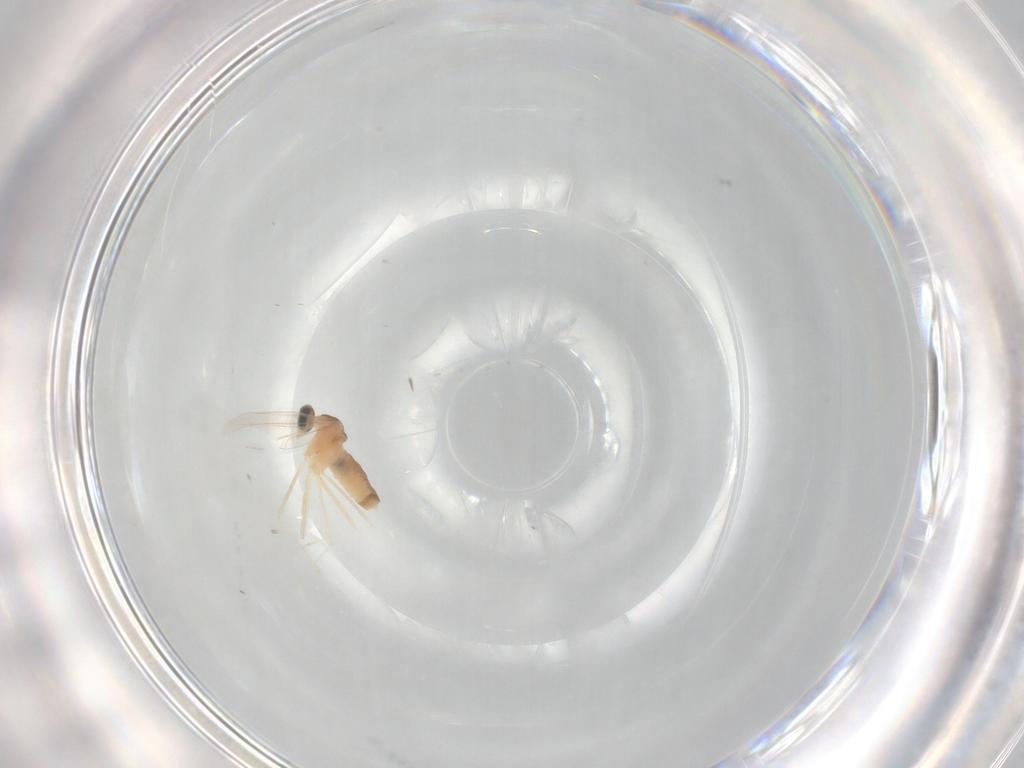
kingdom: Animalia
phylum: Arthropoda
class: Insecta
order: Diptera
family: Cecidomyiidae
